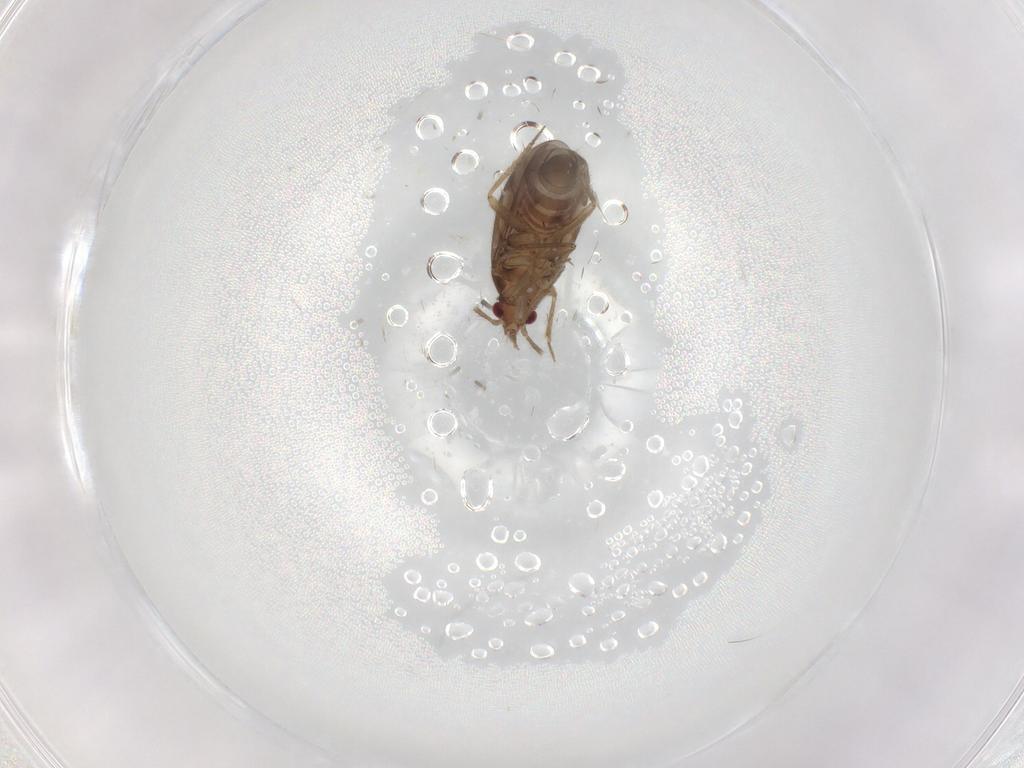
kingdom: Animalia
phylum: Arthropoda
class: Insecta
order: Hemiptera
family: Ceratocombidae
